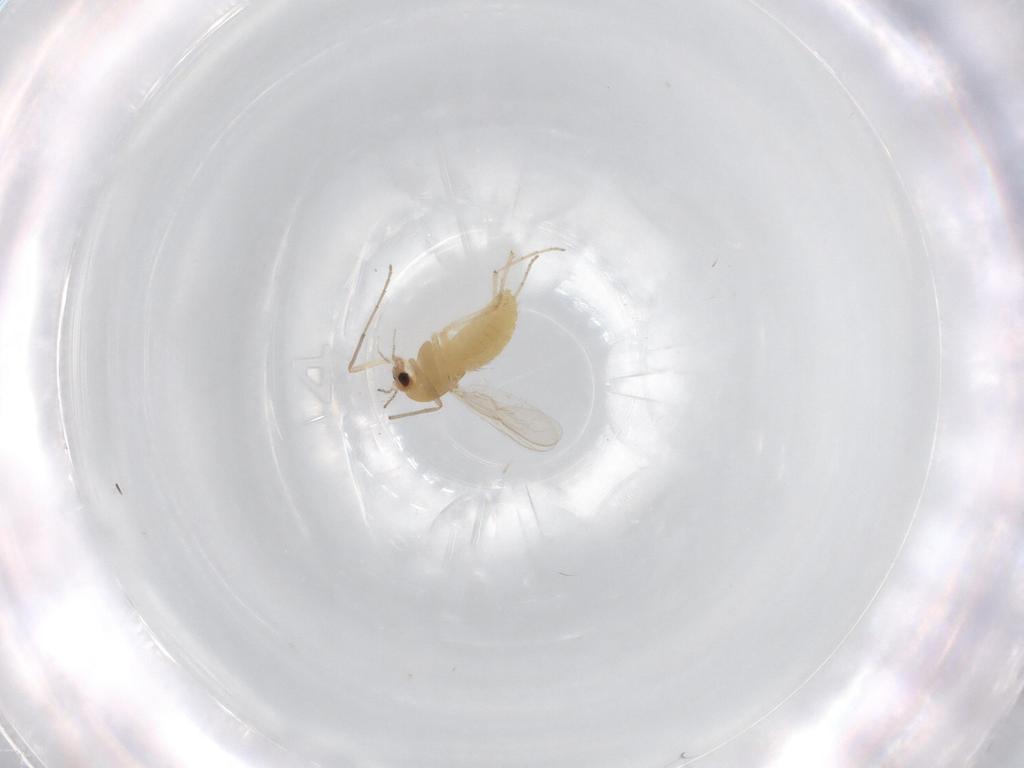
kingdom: Animalia
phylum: Arthropoda
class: Insecta
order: Diptera
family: Chironomidae
